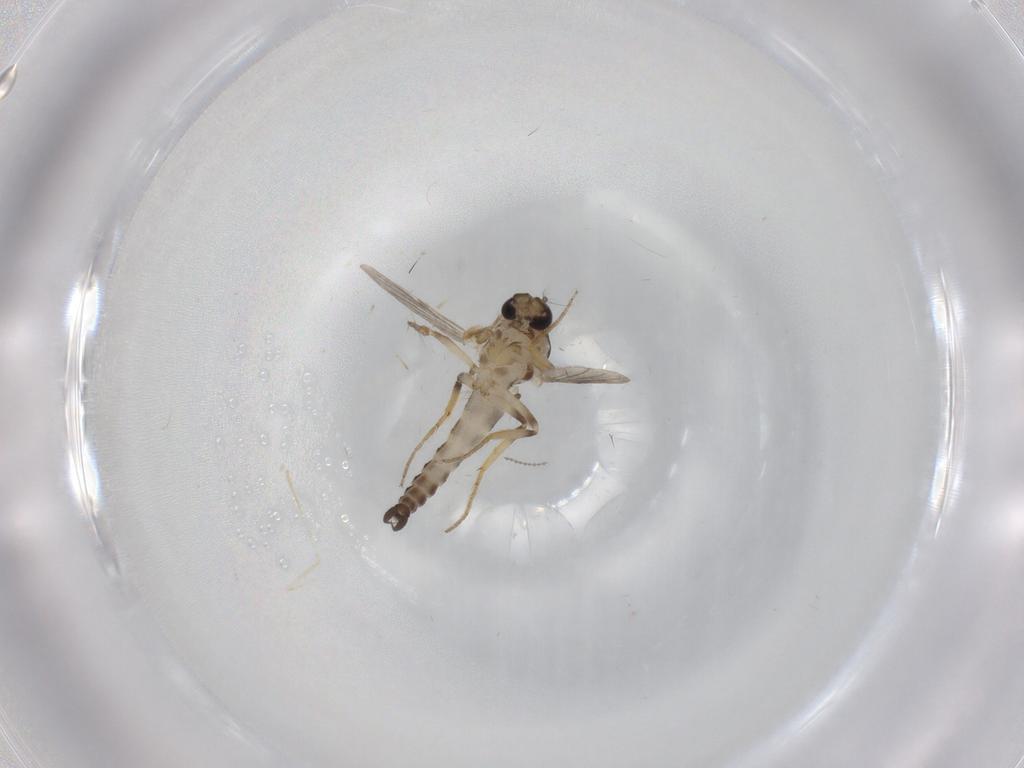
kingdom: Animalia
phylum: Arthropoda
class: Insecta
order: Diptera
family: Ceratopogonidae
